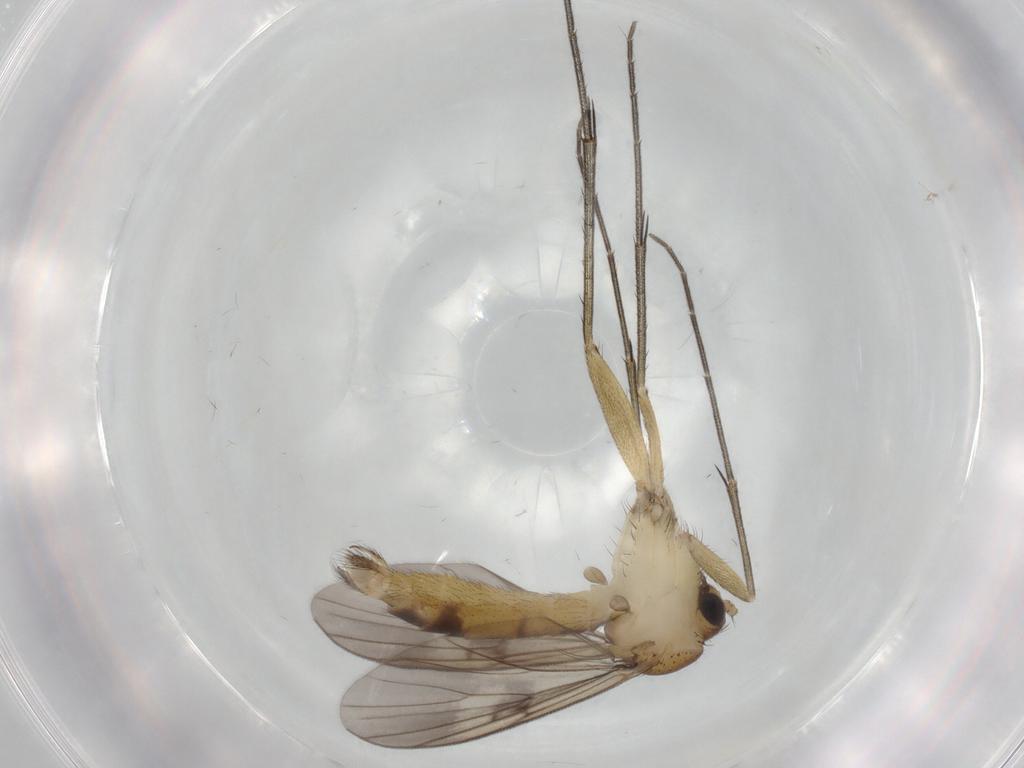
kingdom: Animalia
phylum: Arthropoda
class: Insecta
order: Diptera
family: Mycetophilidae
